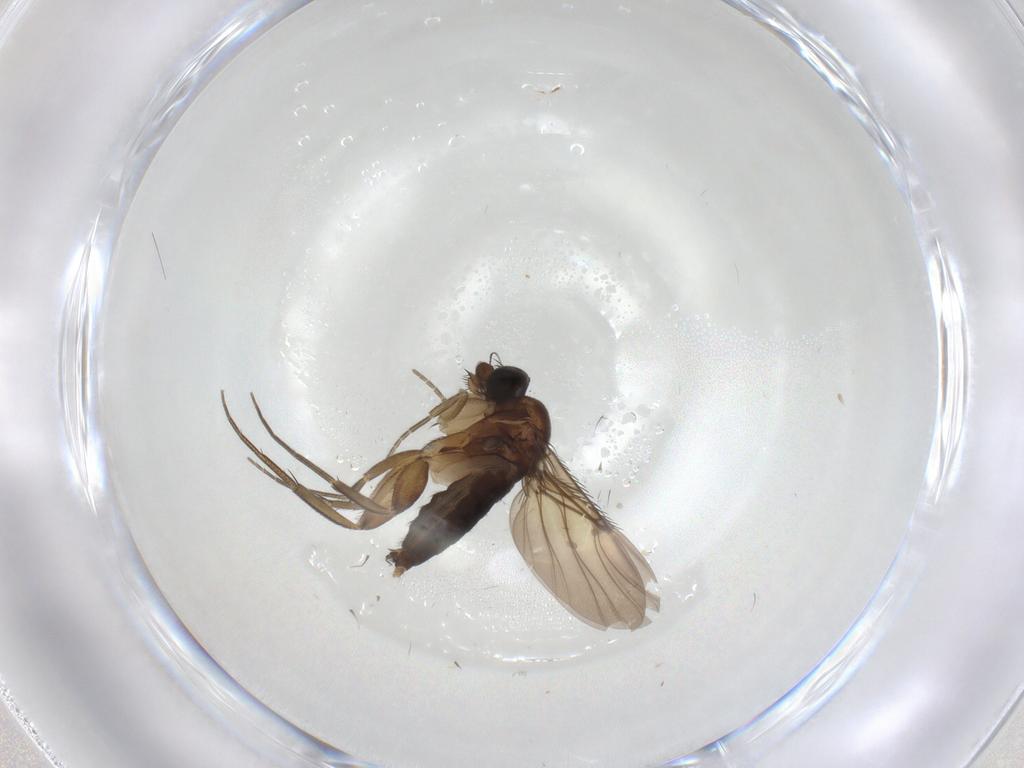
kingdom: Animalia
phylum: Arthropoda
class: Insecta
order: Diptera
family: Phoridae
